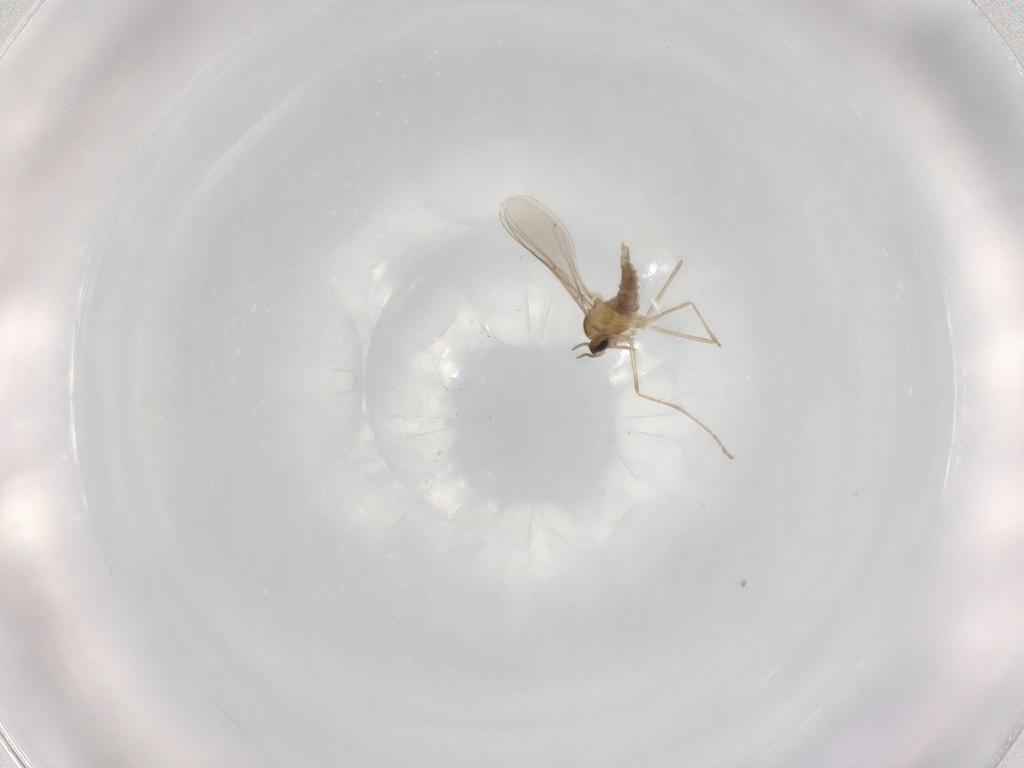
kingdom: Animalia
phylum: Arthropoda
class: Insecta
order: Diptera
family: Cecidomyiidae
